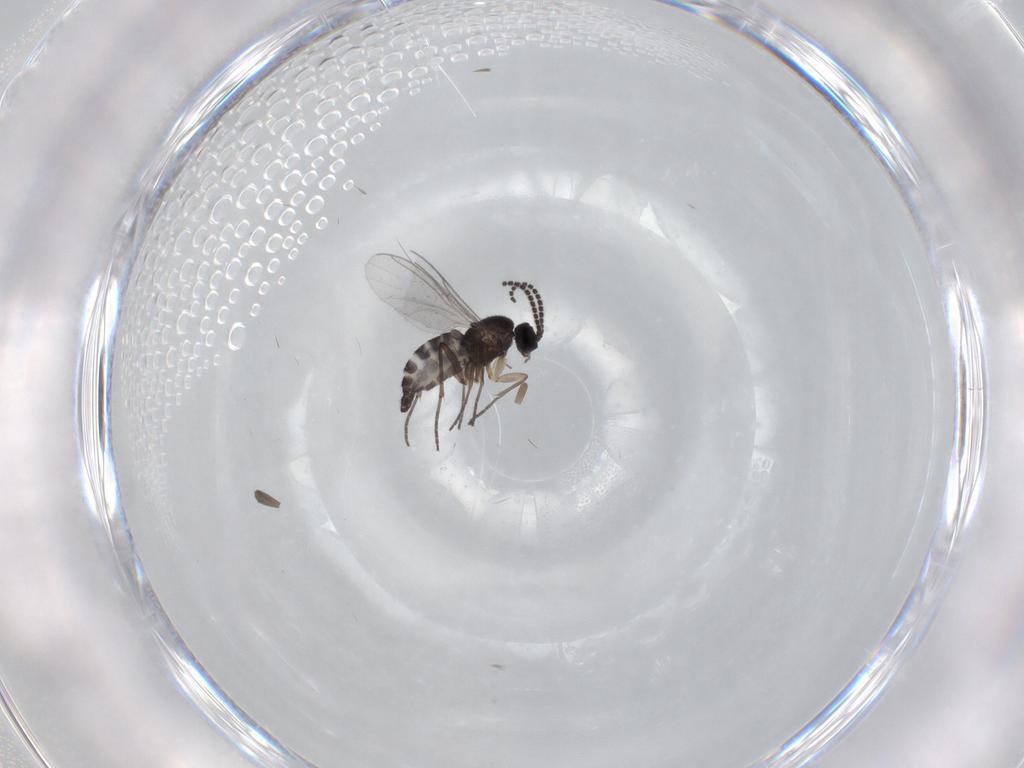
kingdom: Animalia
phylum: Arthropoda
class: Insecta
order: Diptera
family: Sciaridae
